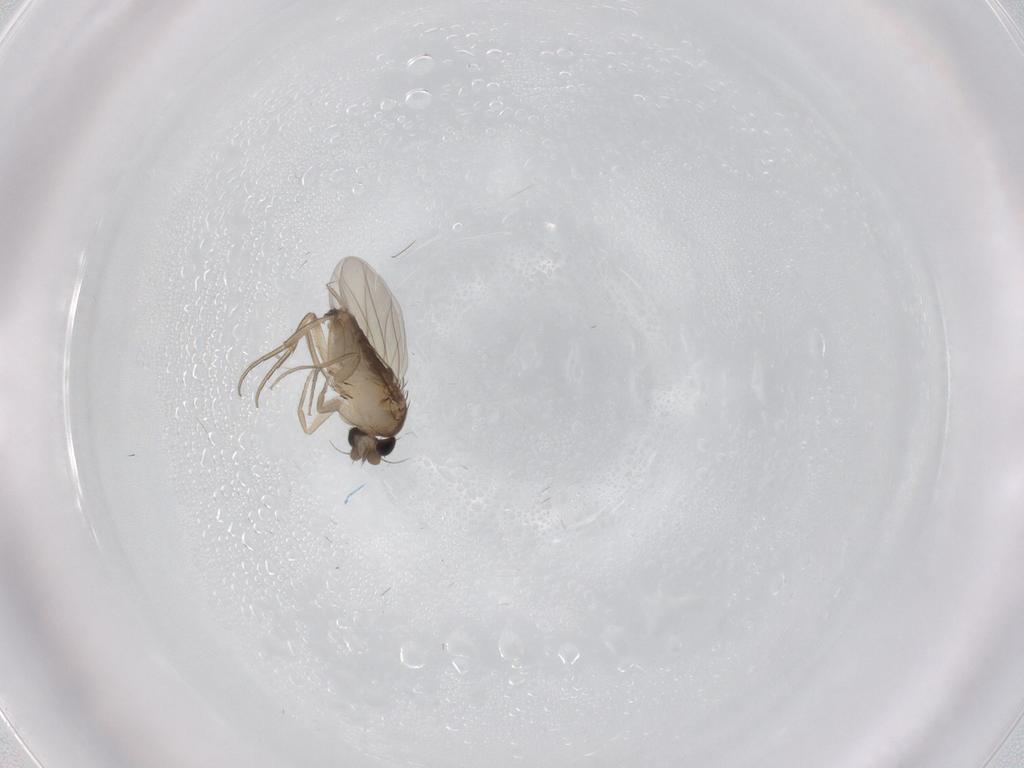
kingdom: Animalia
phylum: Arthropoda
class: Insecta
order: Diptera
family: Phoridae
